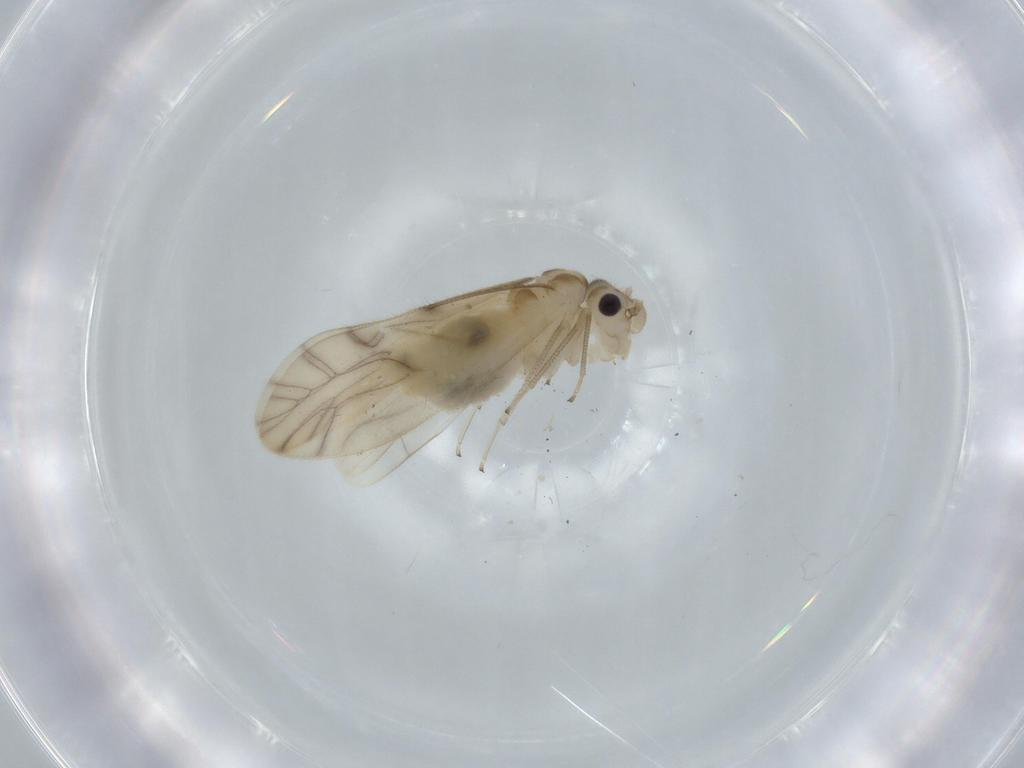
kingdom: Animalia
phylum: Arthropoda
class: Insecta
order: Psocodea
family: Caeciliusidae
